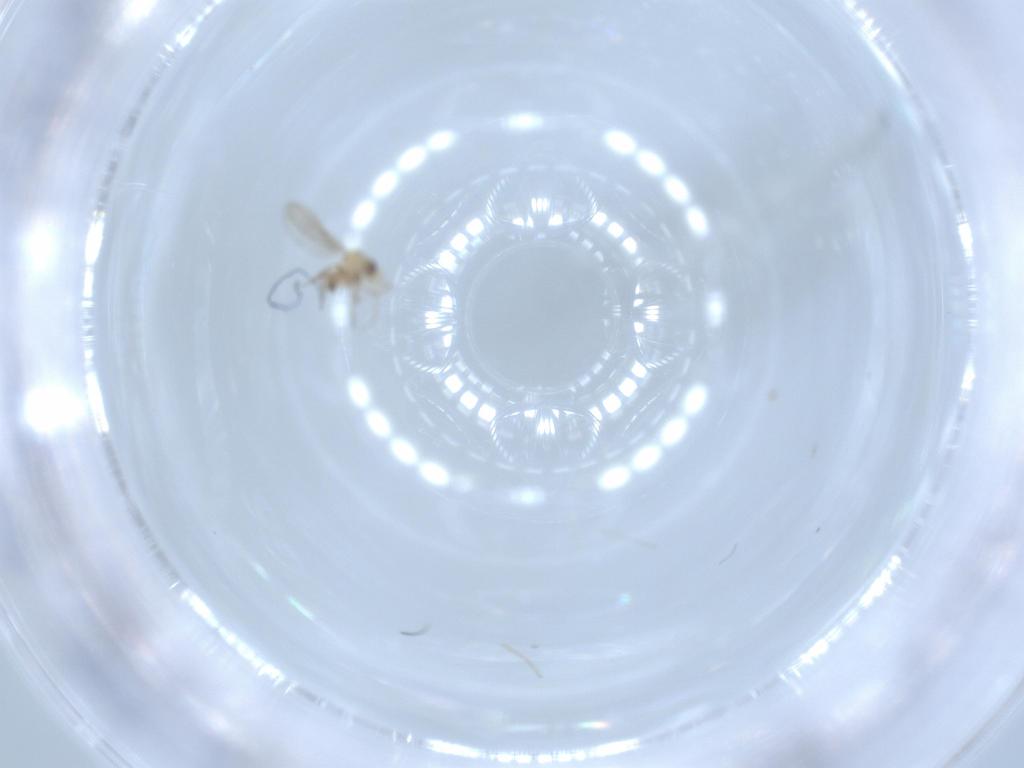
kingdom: Animalia
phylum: Arthropoda
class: Insecta
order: Diptera
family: Cecidomyiidae
